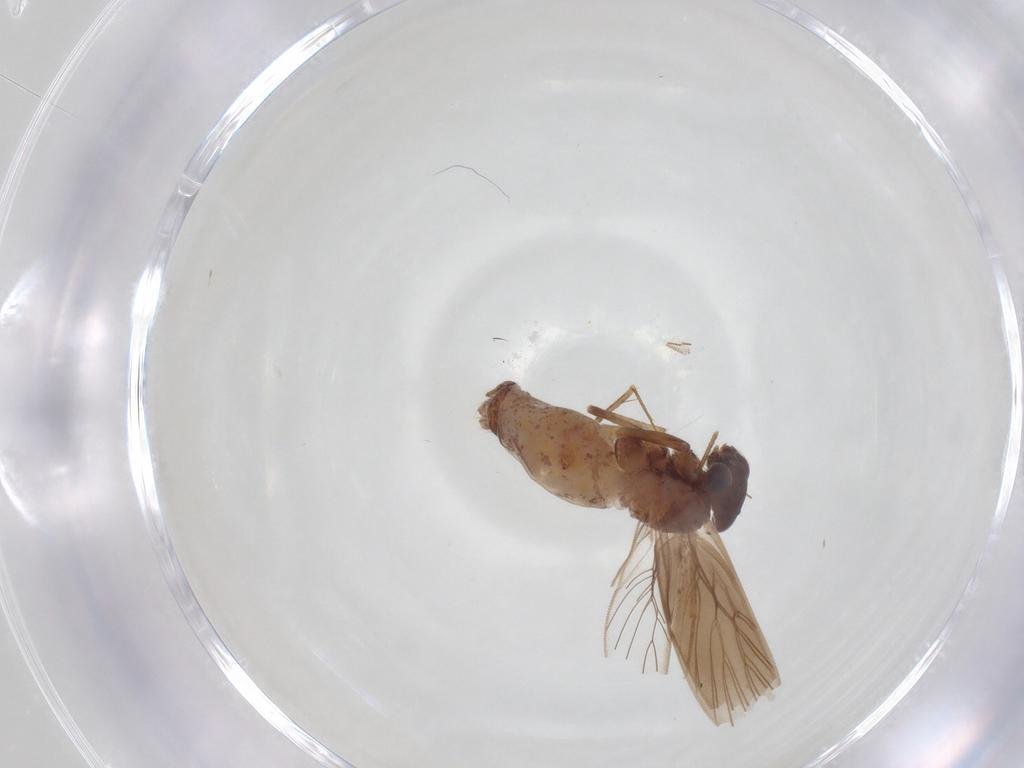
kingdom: Animalia
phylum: Arthropoda
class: Insecta
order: Psocodea
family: Lepidopsocidae
